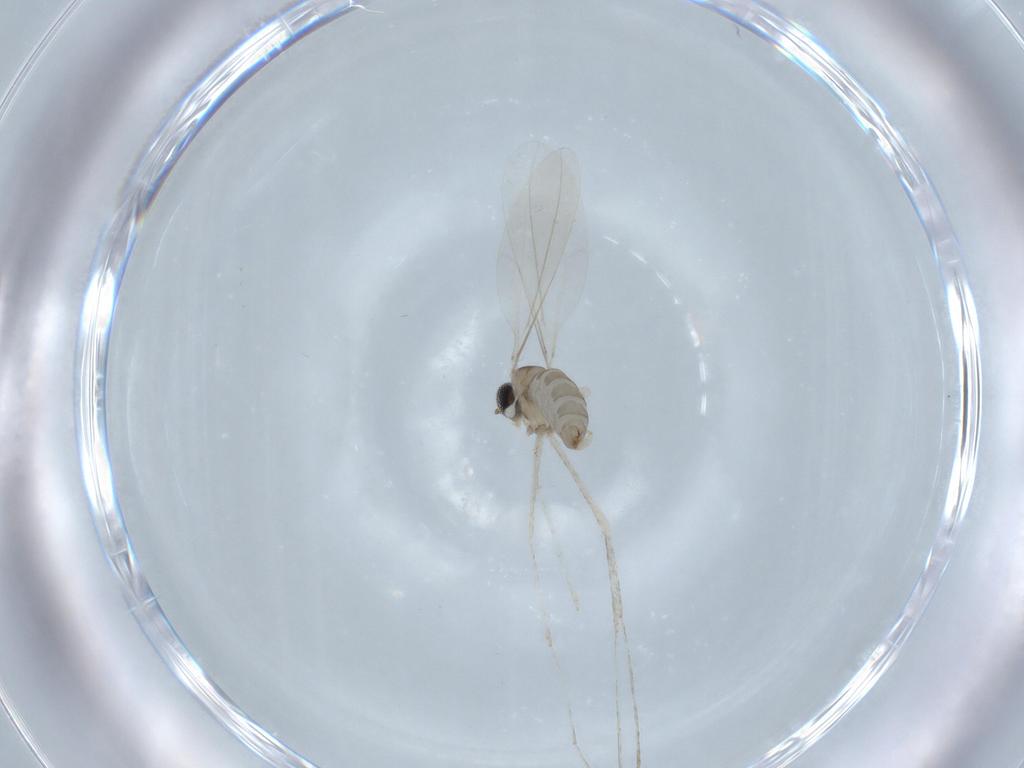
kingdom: Animalia
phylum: Arthropoda
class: Insecta
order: Diptera
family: Cecidomyiidae
